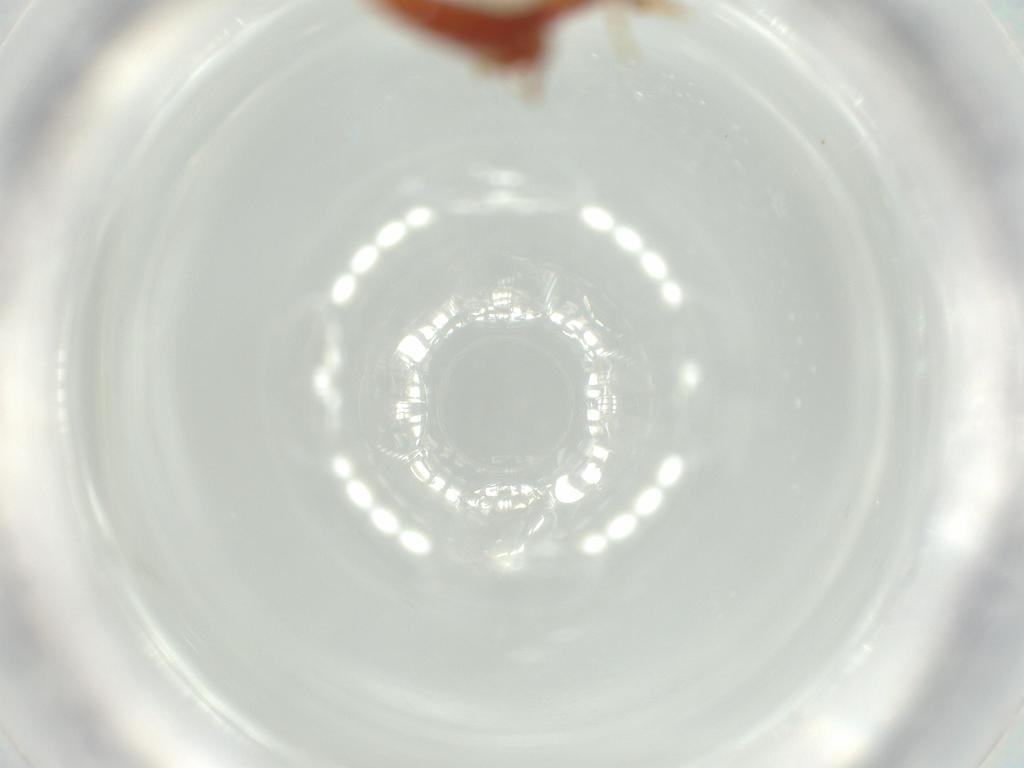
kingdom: Animalia
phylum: Arthropoda
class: Insecta
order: Diptera
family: Cecidomyiidae
